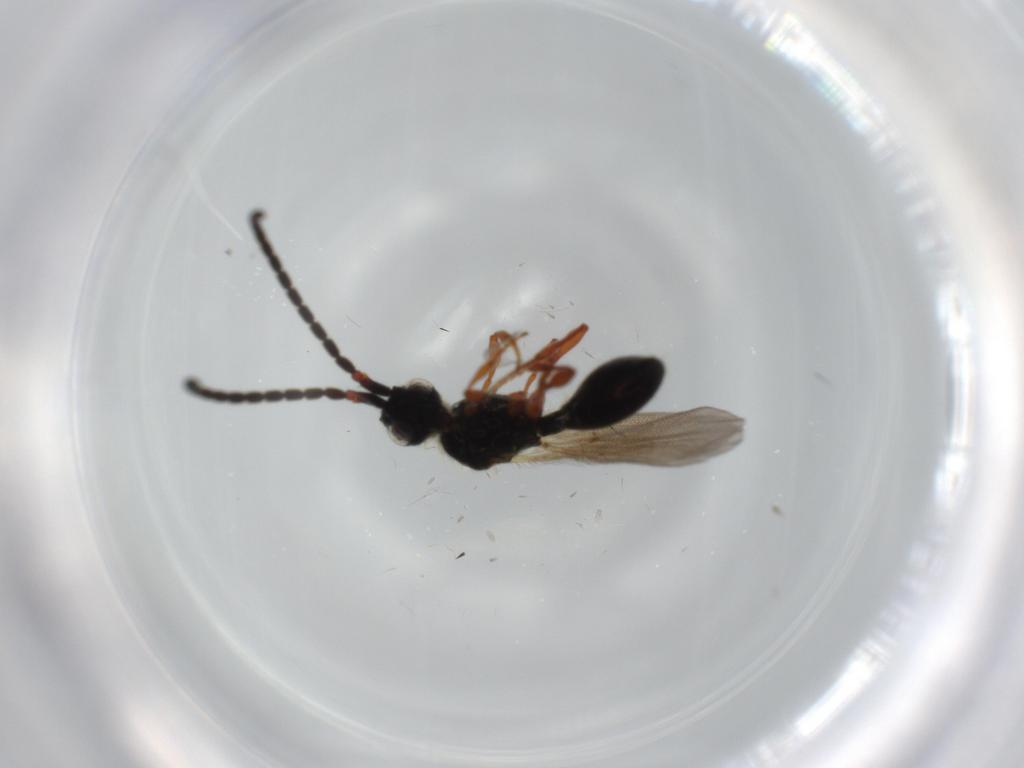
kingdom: Animalia
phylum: Arthropoda
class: Insecta
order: Hymenoptera
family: Diapriidae
